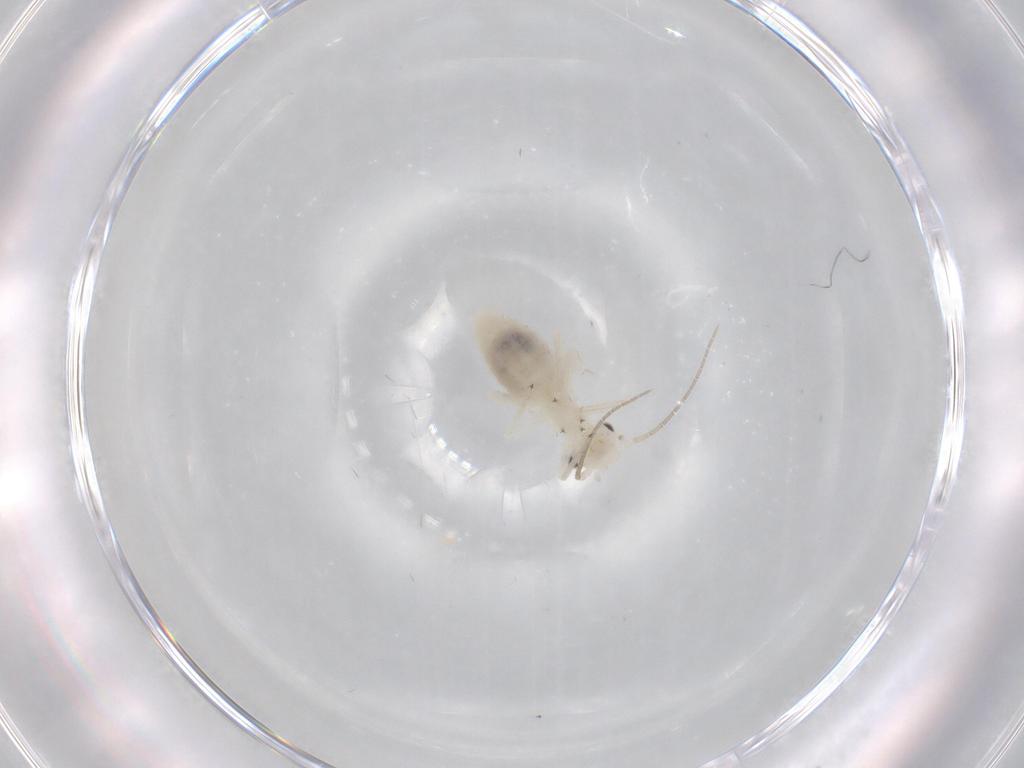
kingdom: Animalia
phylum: Arthropoda
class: Insecta
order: Psocodea
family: Caeciliusidae
